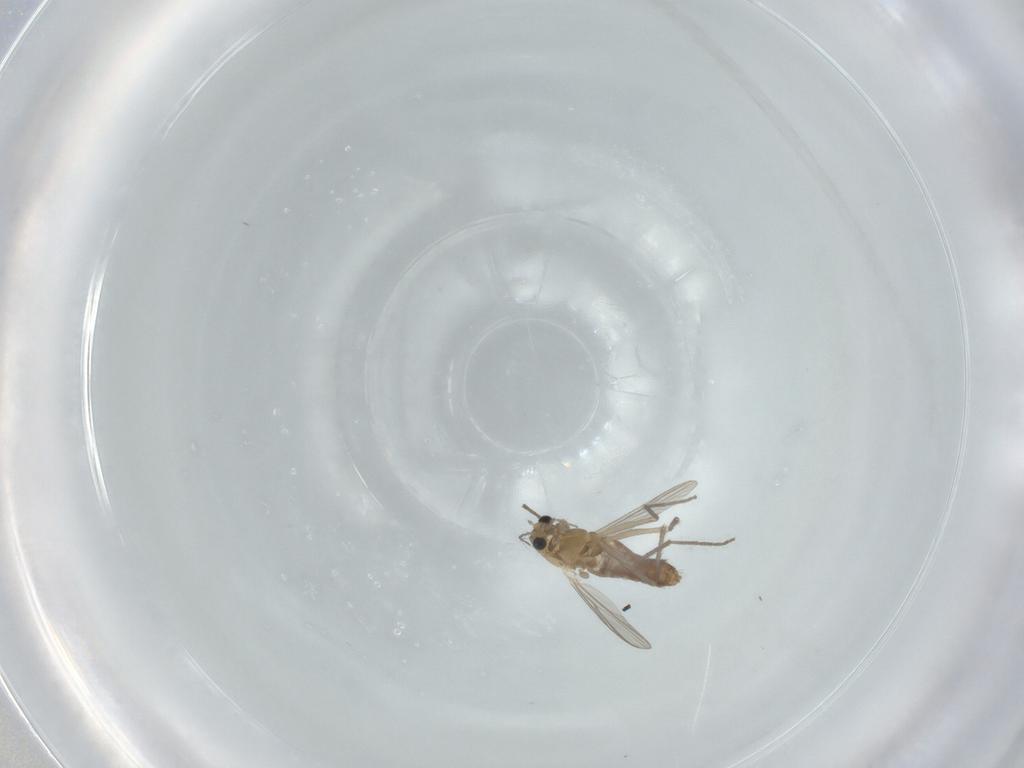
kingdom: Animalia
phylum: Arthropoda
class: Insecta
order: Diptera
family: Chironomidae
